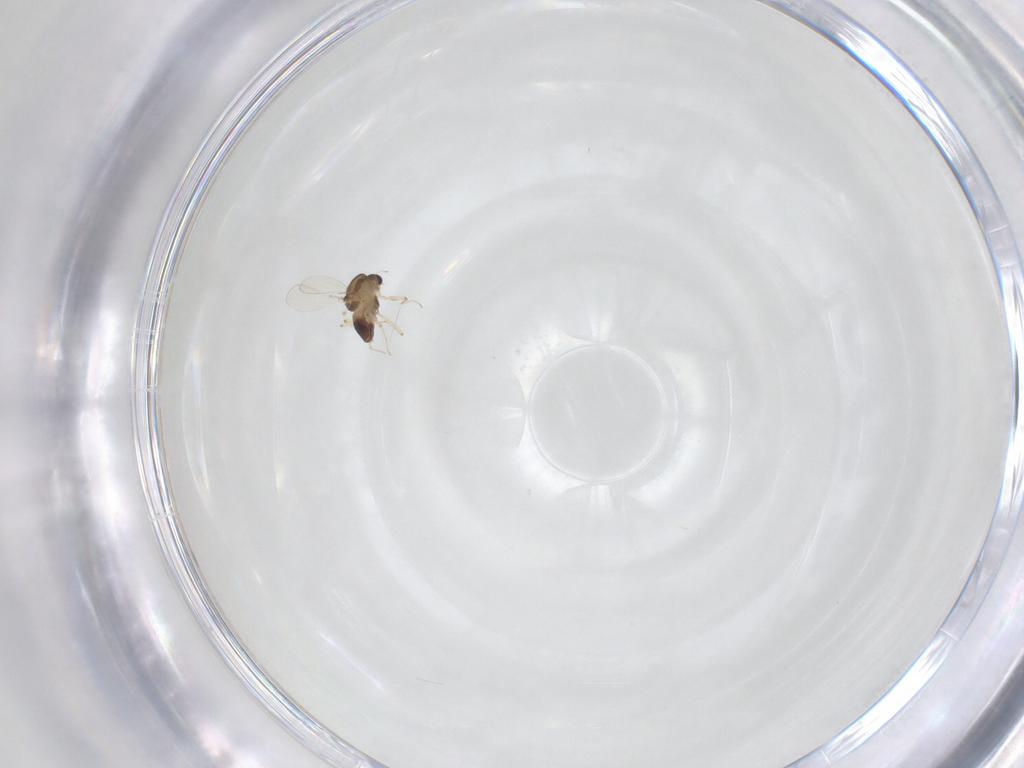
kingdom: Animalia
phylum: Arthropoda
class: Insecta
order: Diptera
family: Chironomidae
